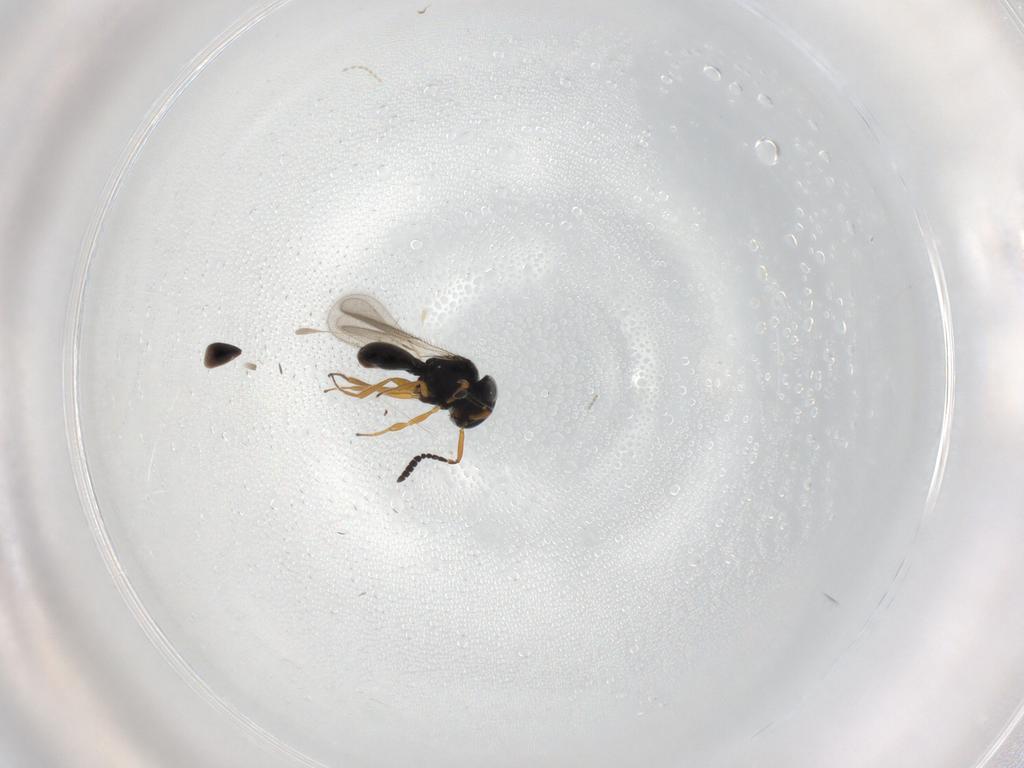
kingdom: Animalia
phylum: Arthropoda
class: Insecta
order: Hymenoptera
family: Scelionidae
